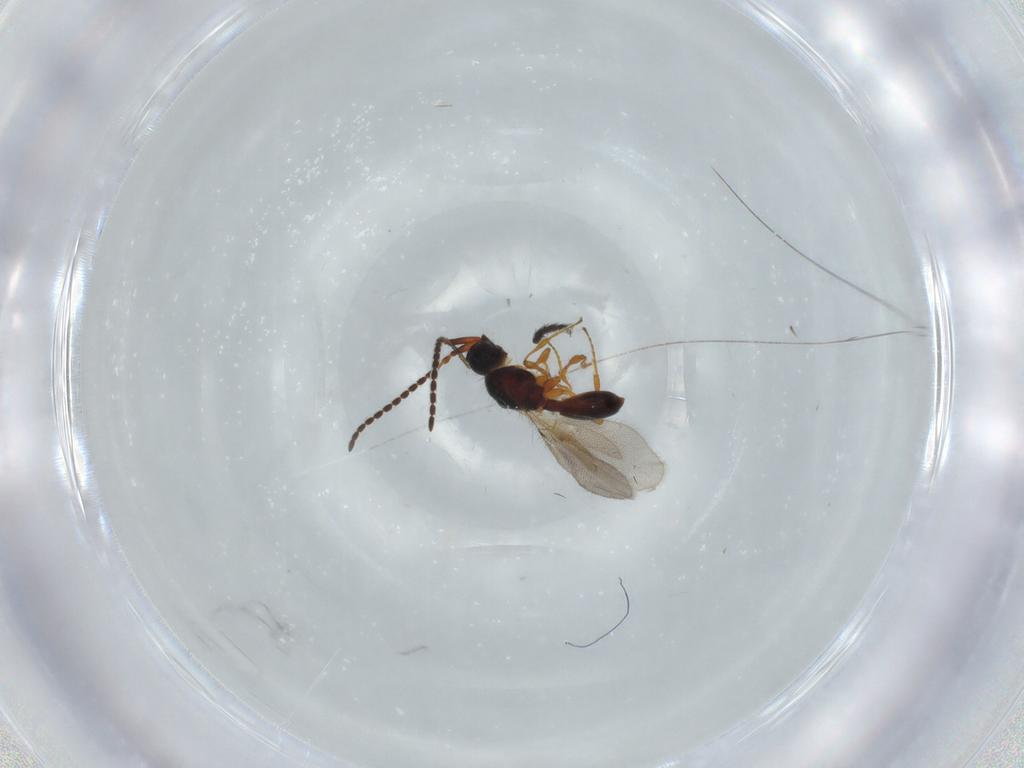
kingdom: Animalia
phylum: Arthropoda
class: Insecta
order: Hymenoptera
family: Diapriidae
